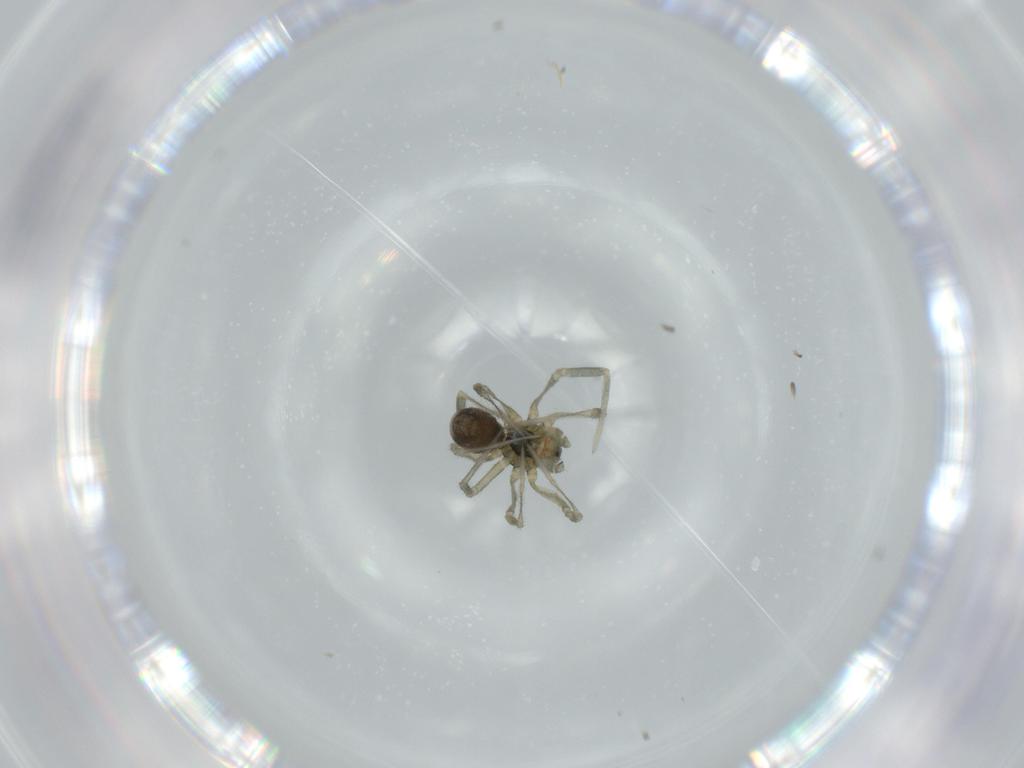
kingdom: Animalia
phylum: Arthropoda
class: Arachnida
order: Araneae
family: Linyphiidae
